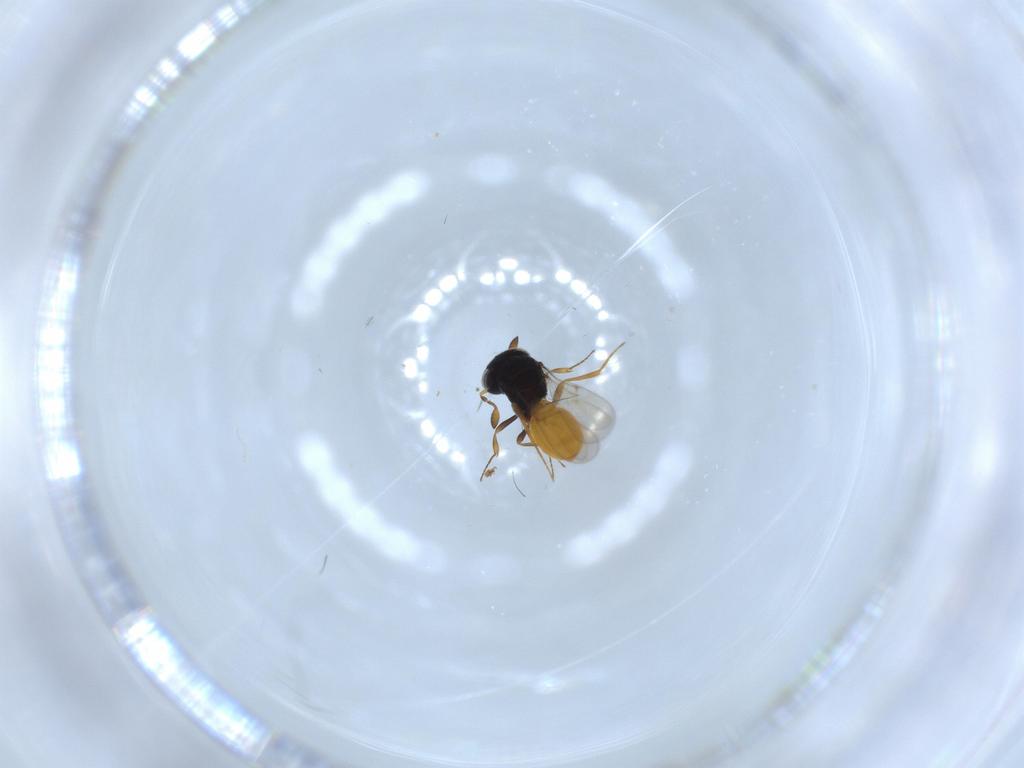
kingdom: Animalia
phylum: Arthropoda
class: Insecta
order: Hymenoptera
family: Scelionidae
